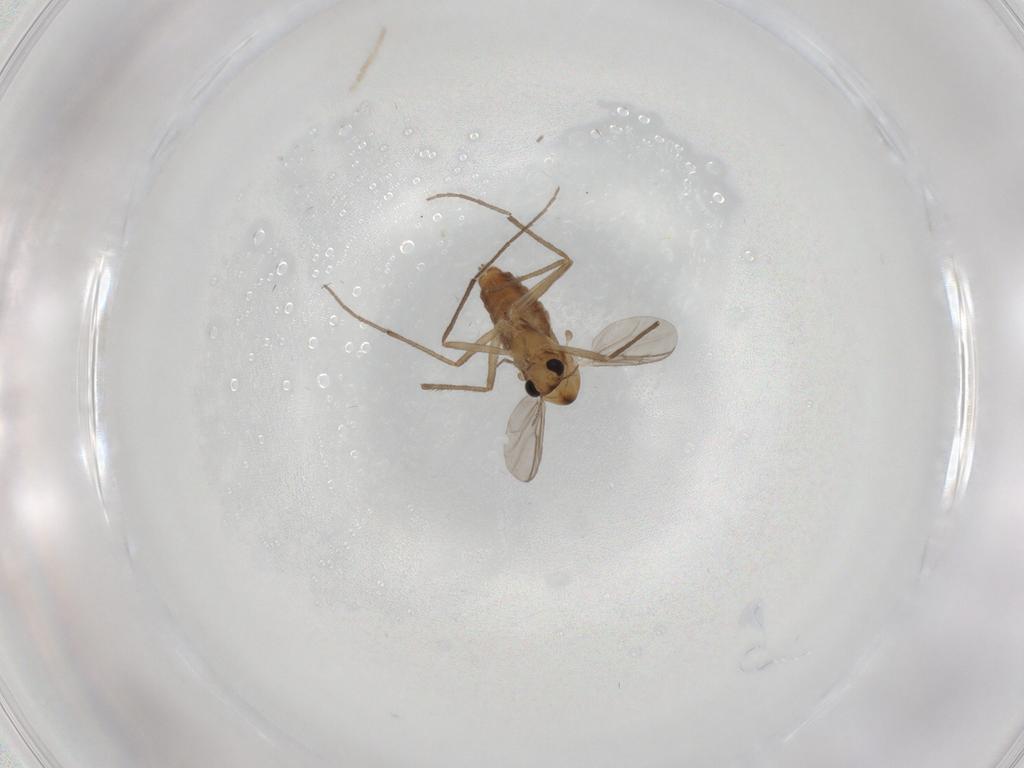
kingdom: Animalia
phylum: Arthropoda
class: Insecta
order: Diptera
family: Chironomidae
